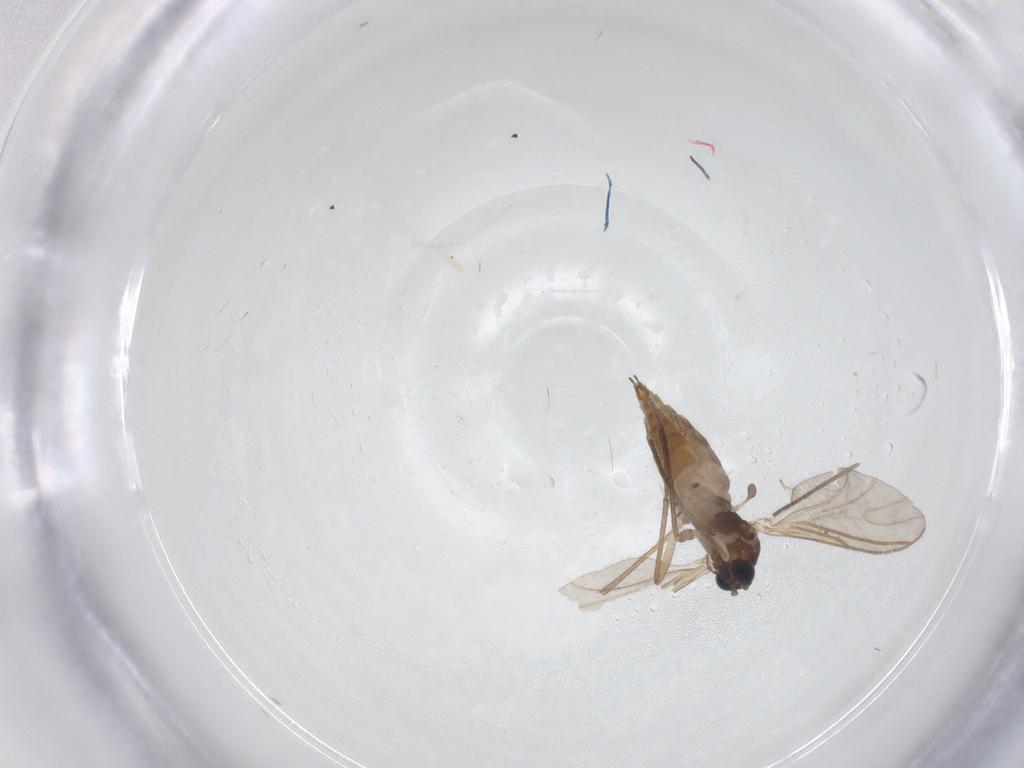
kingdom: Animalia
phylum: Arthropoda
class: Insecta
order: Diptera
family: Sciaridae
